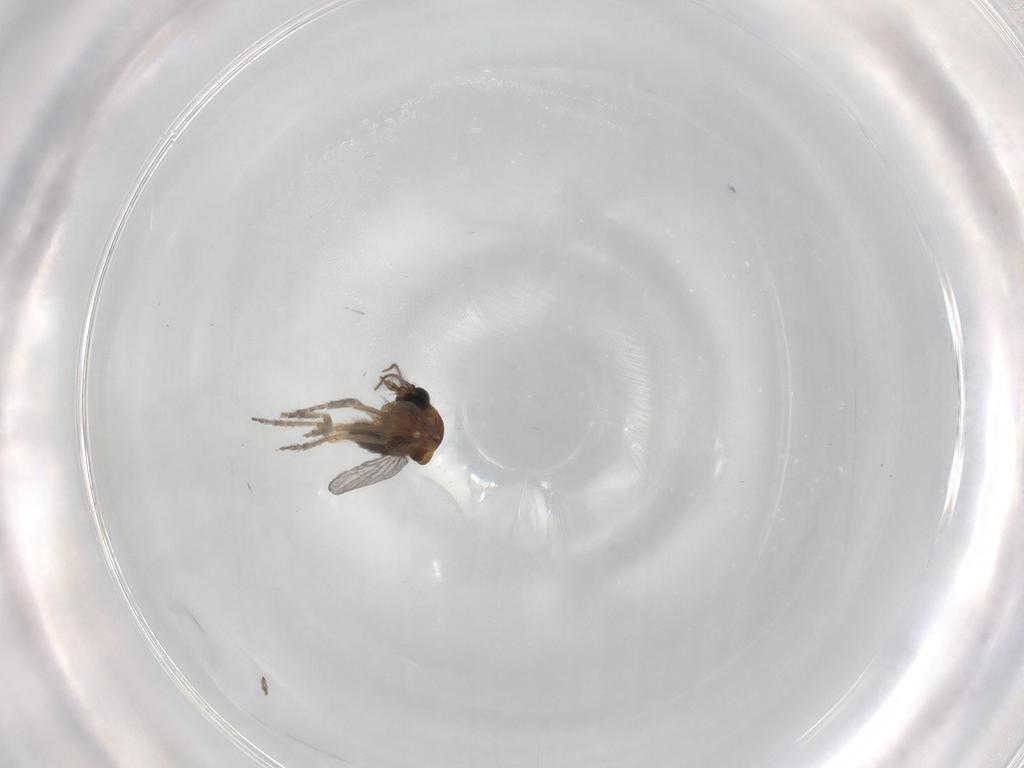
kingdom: Animalia
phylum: Arthropoda
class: Insecta
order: Diptera
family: Ceratopogonidae
